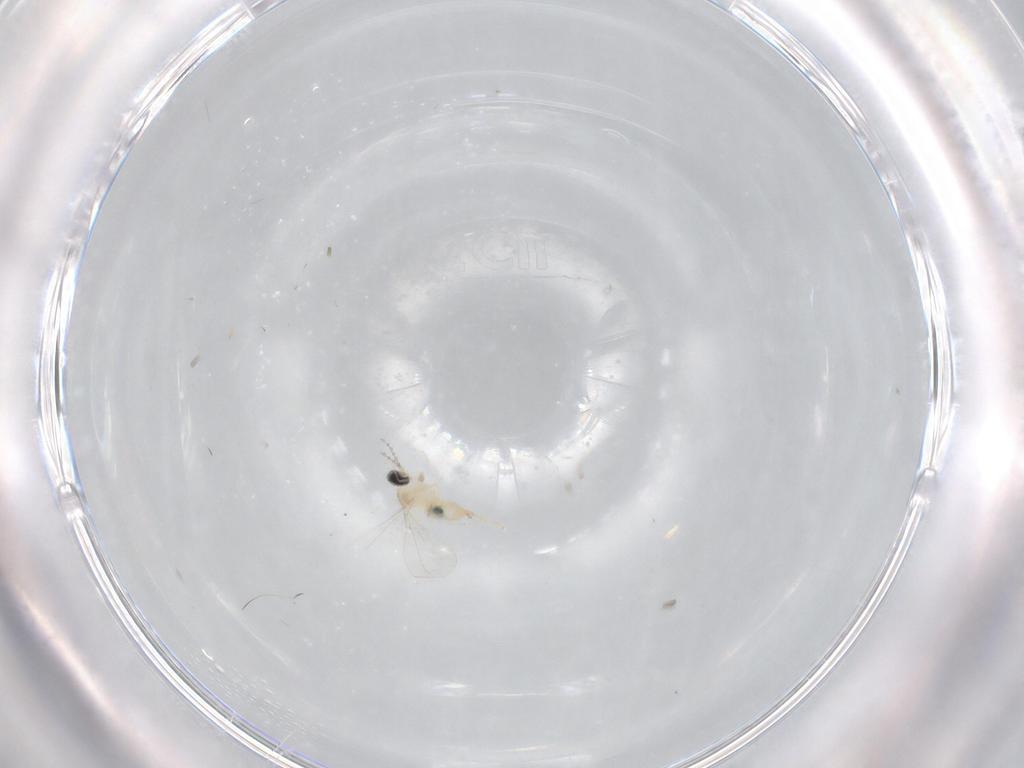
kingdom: Animalia
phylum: Arthropoda
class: Insecta
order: Diptera
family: Cecidomyiidae
